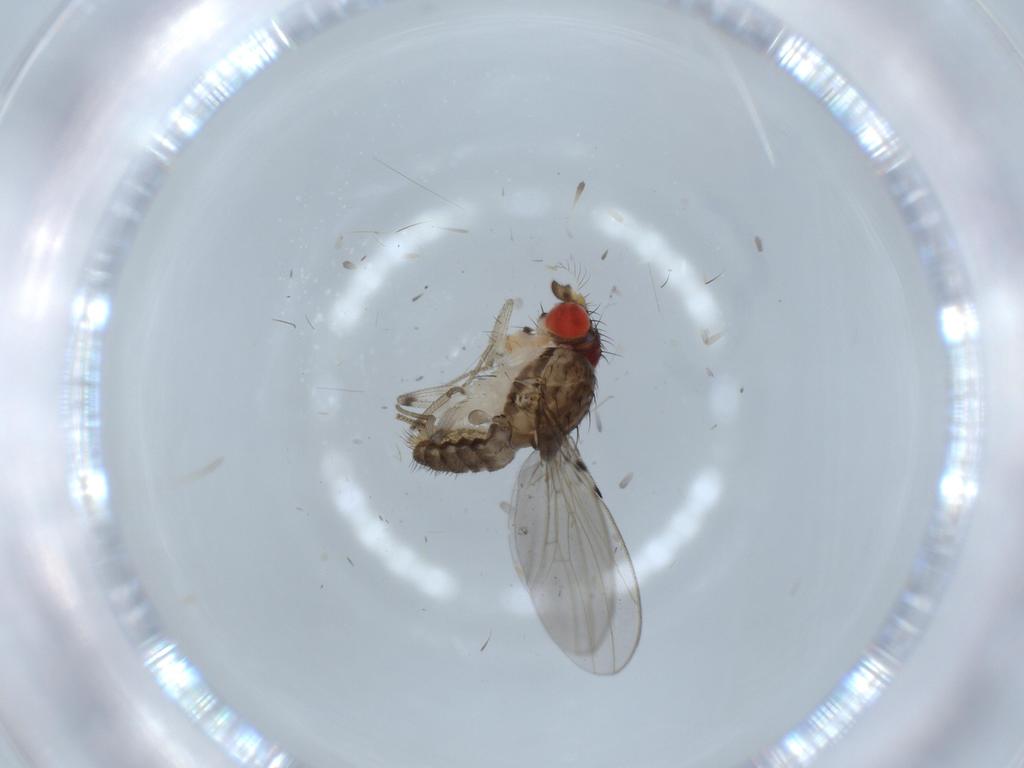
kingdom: Animalia
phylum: Arthropoda
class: Insecta
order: Diptera
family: Drosophilidae
